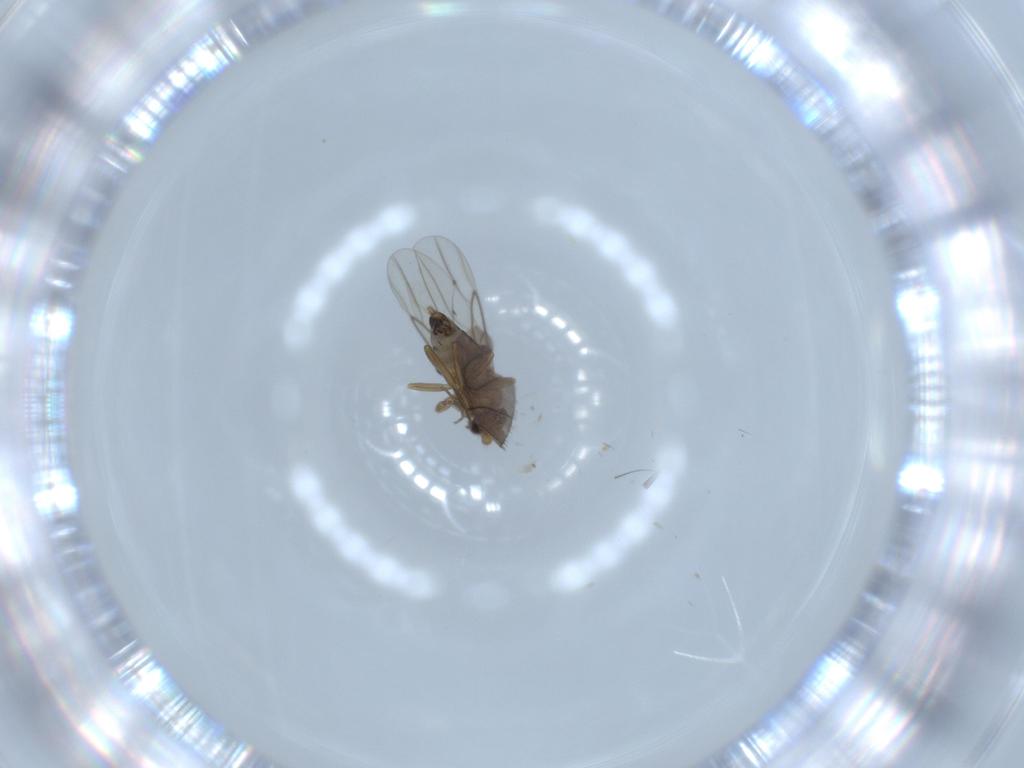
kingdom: Animalia
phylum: Arthropoda
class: Insecta
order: Diptera
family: Phoridae
